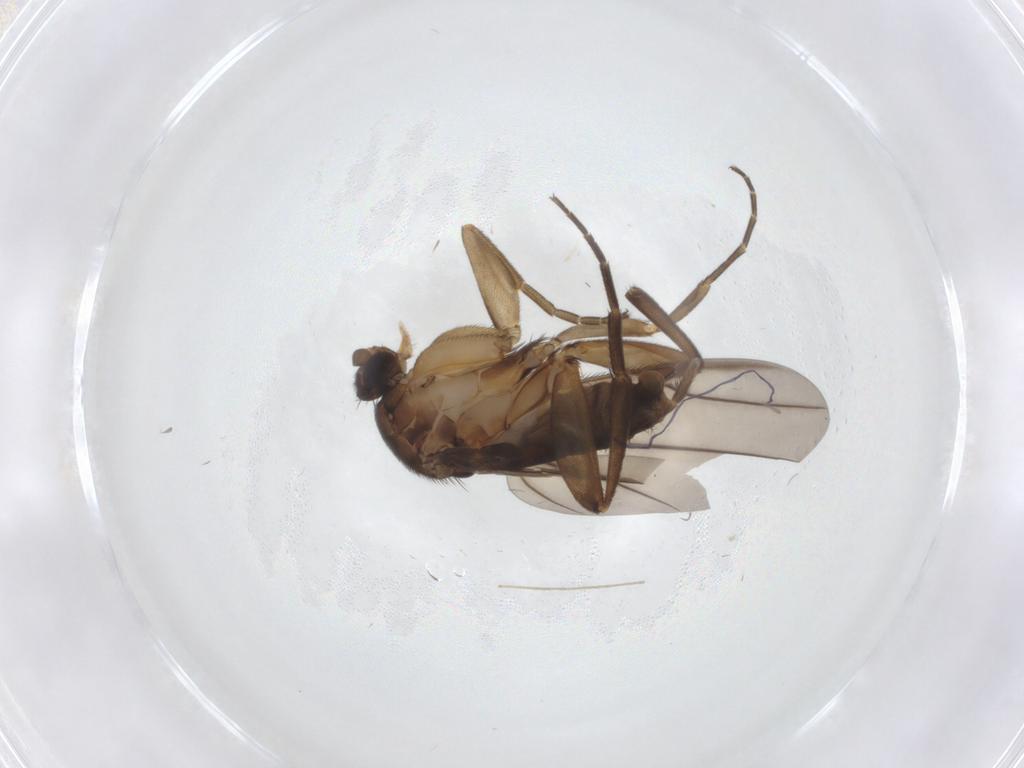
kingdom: Animalia
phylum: Arthropoda
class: Insecta
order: Diptera
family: Phoridae
